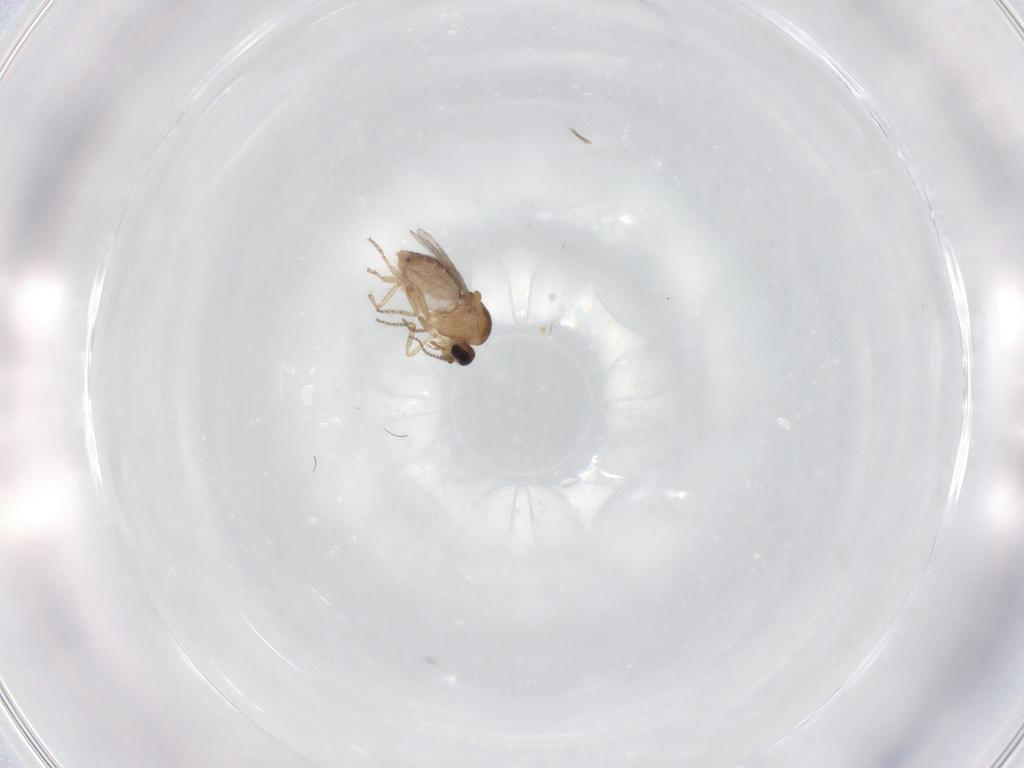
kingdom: Animalia
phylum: Arthropoda
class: Insecta
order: Diptera
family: Ceratopogonidae
